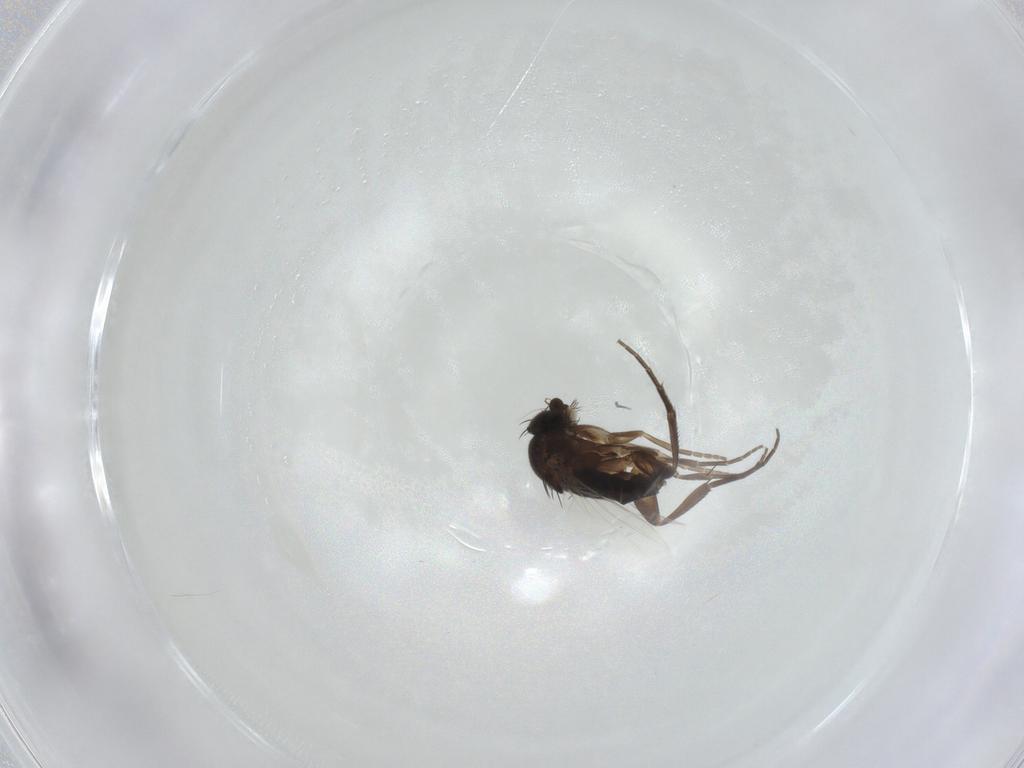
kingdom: Animalia
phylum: Arthropoda
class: Insecta
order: Diptera
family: Phoridae
